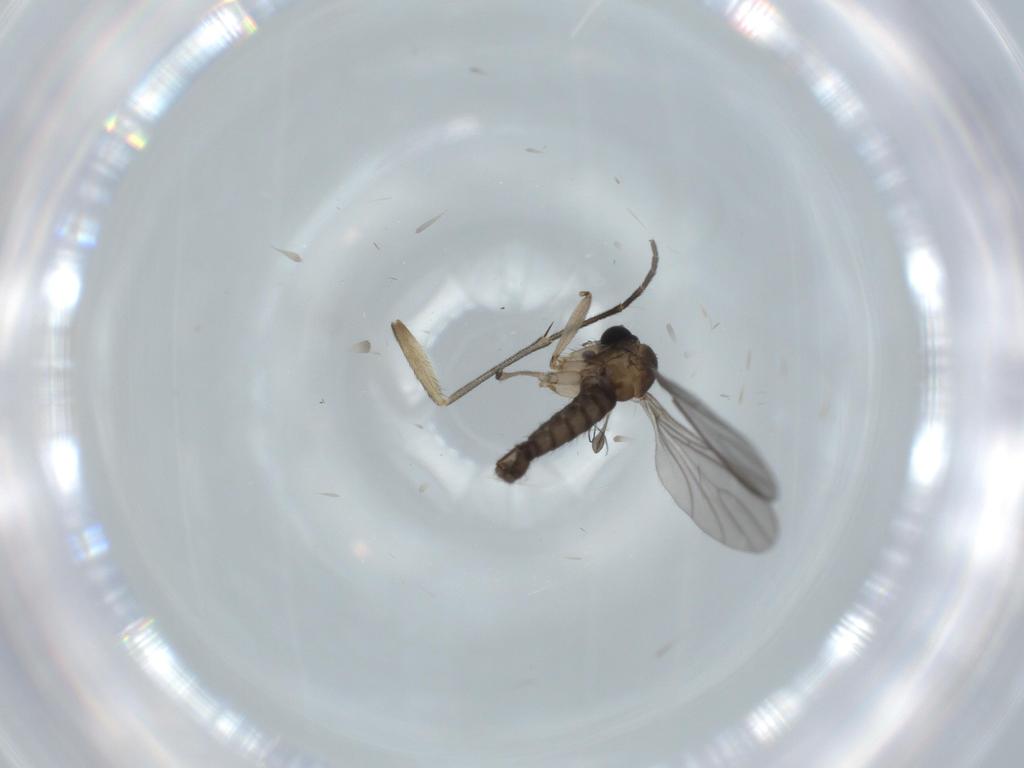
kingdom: Animalia
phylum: Arthropoda
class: Insecta
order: Diptera
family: Sciaridae
